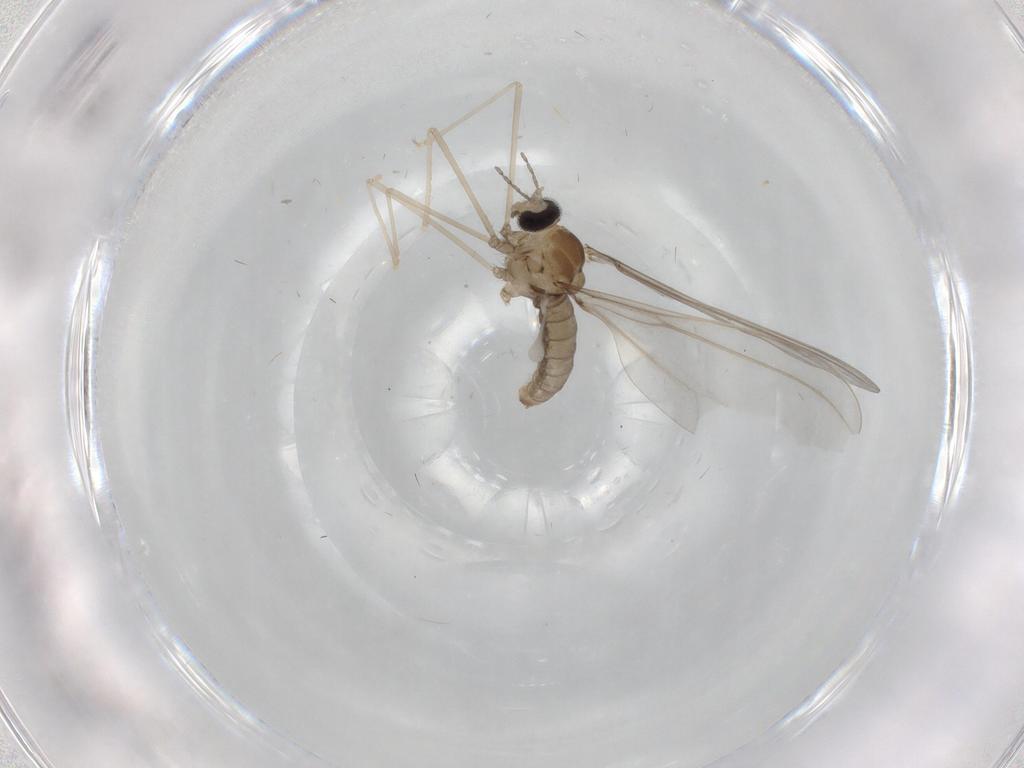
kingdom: Animalia
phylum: Arthropoda
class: Insecta
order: Diptera
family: Cecidomyiidae
